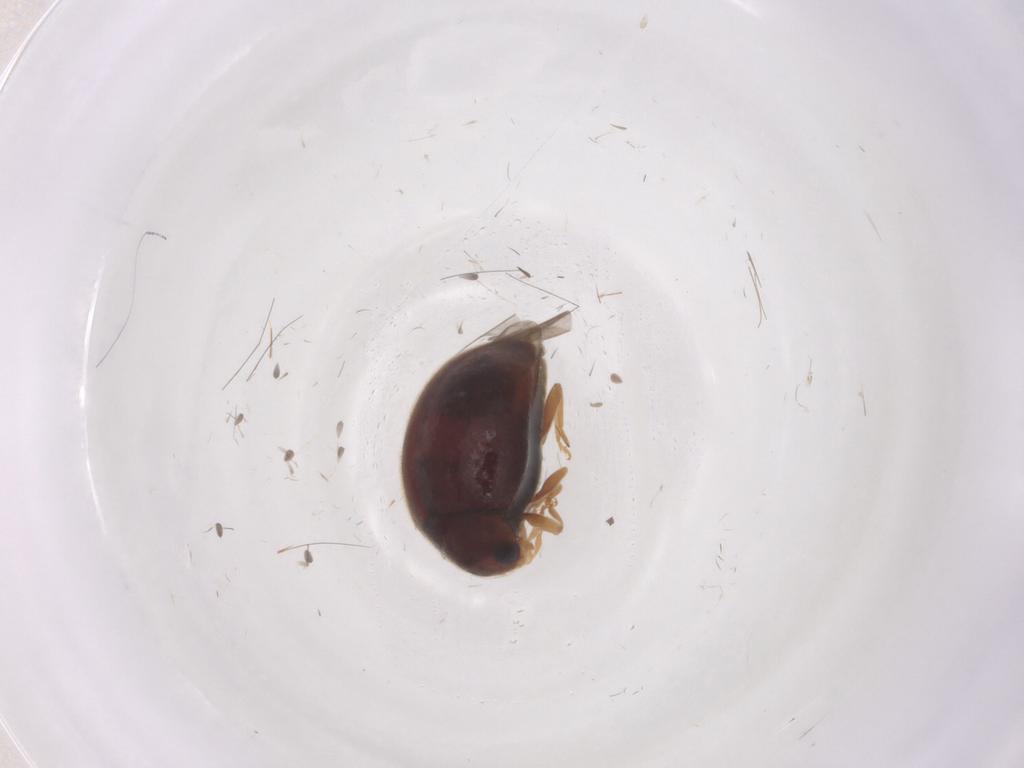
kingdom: Animalia
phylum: Arthropoda
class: Insecta
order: Coleoptera
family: Coccinellidae
